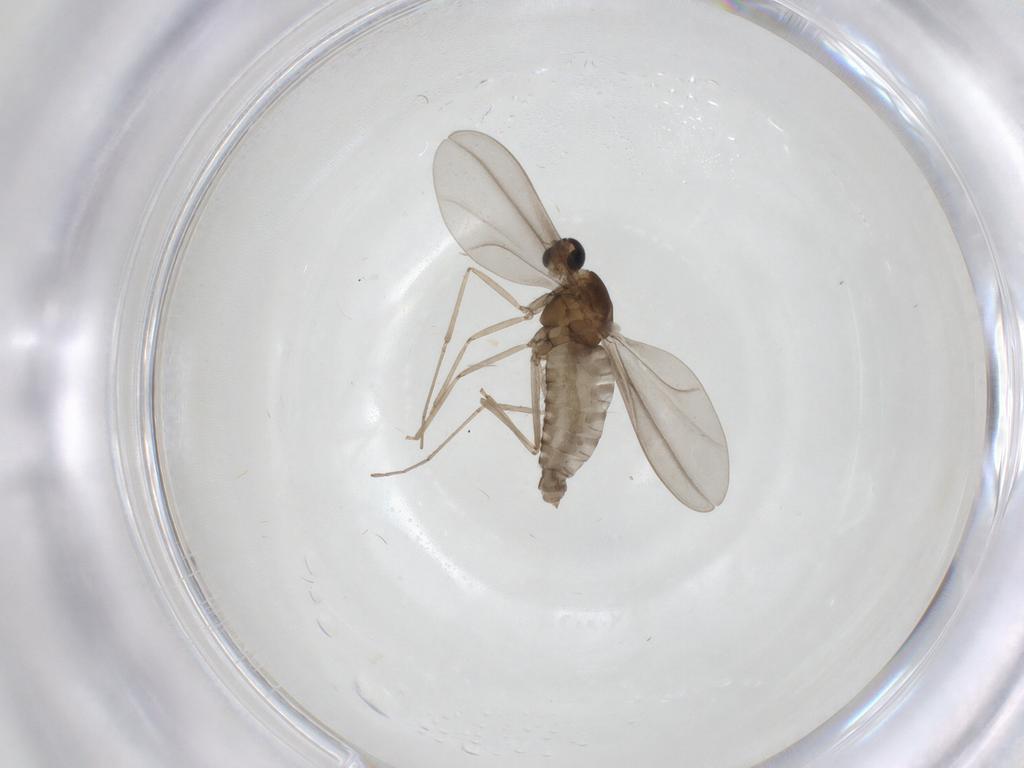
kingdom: Animalia
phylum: Arthropoda
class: Insecta
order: Diptera
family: Cecidomyiidae
